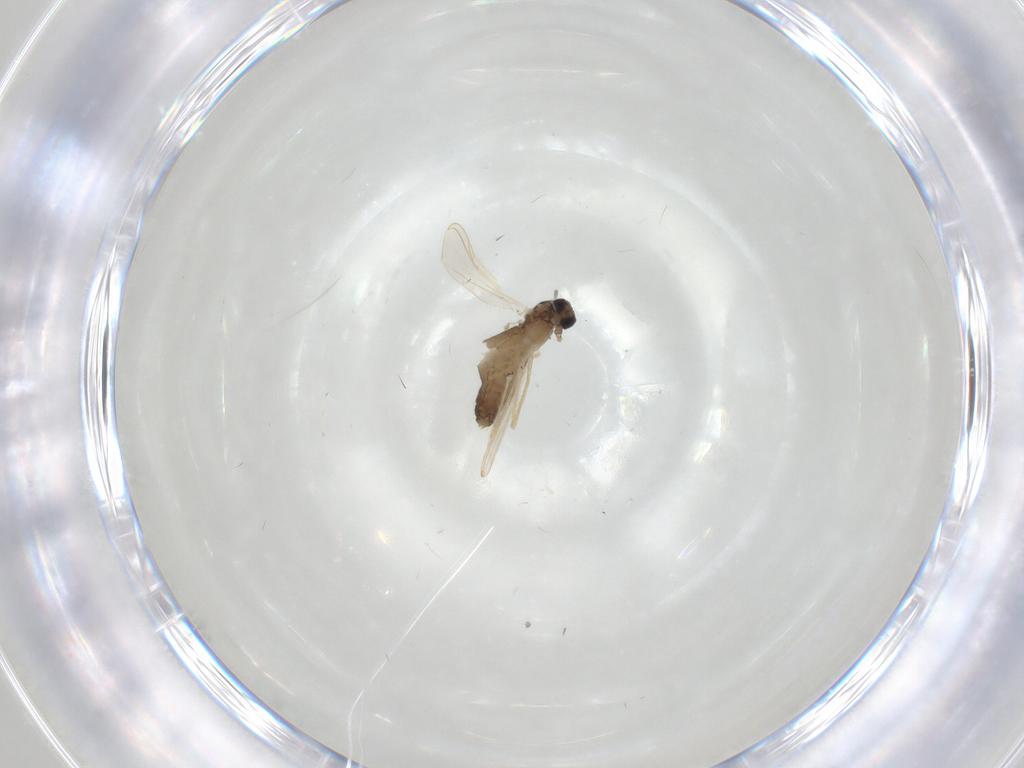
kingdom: Animalia
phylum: Arthropoda
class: Insecta
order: Diptera
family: Chironomidae
